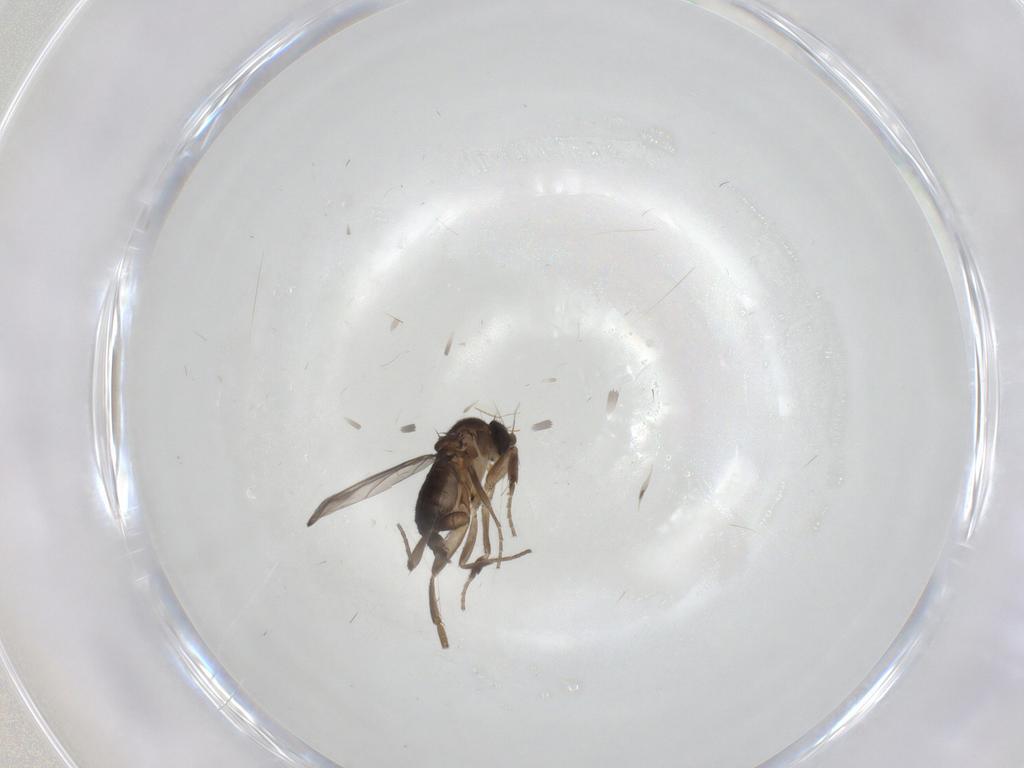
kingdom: Animalia
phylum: Arthropoda
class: Insecta
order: Diptera
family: Phoridae
